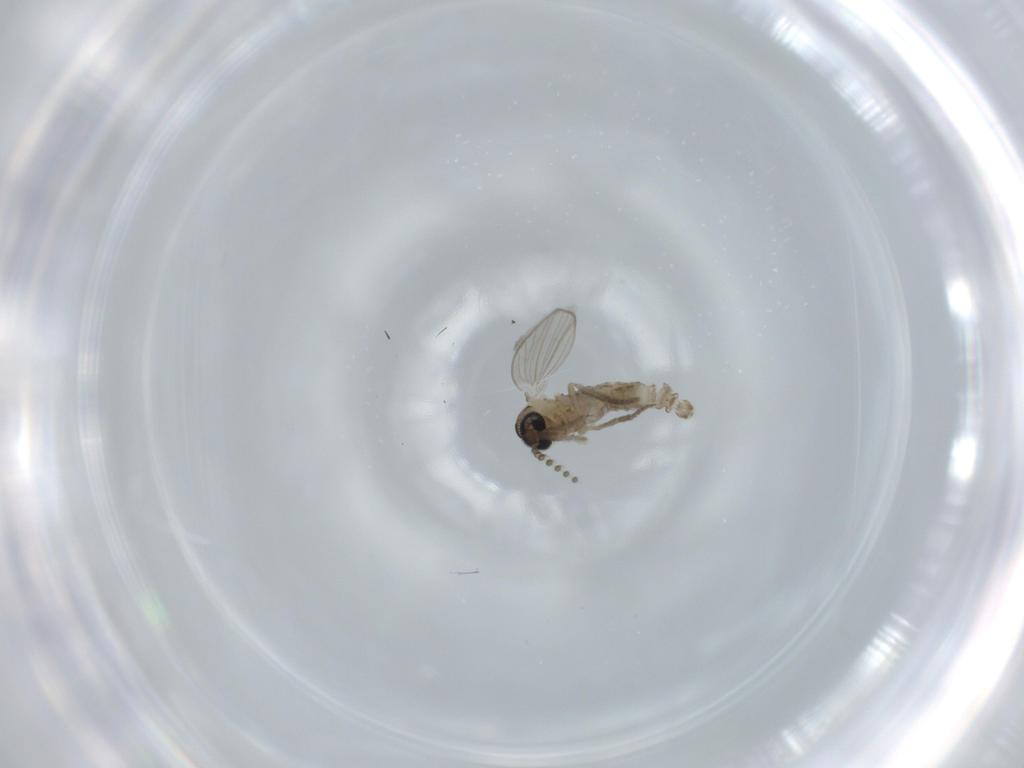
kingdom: Animalia
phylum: Arthropoda
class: Insecta
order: Diptera
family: Psychodidae
